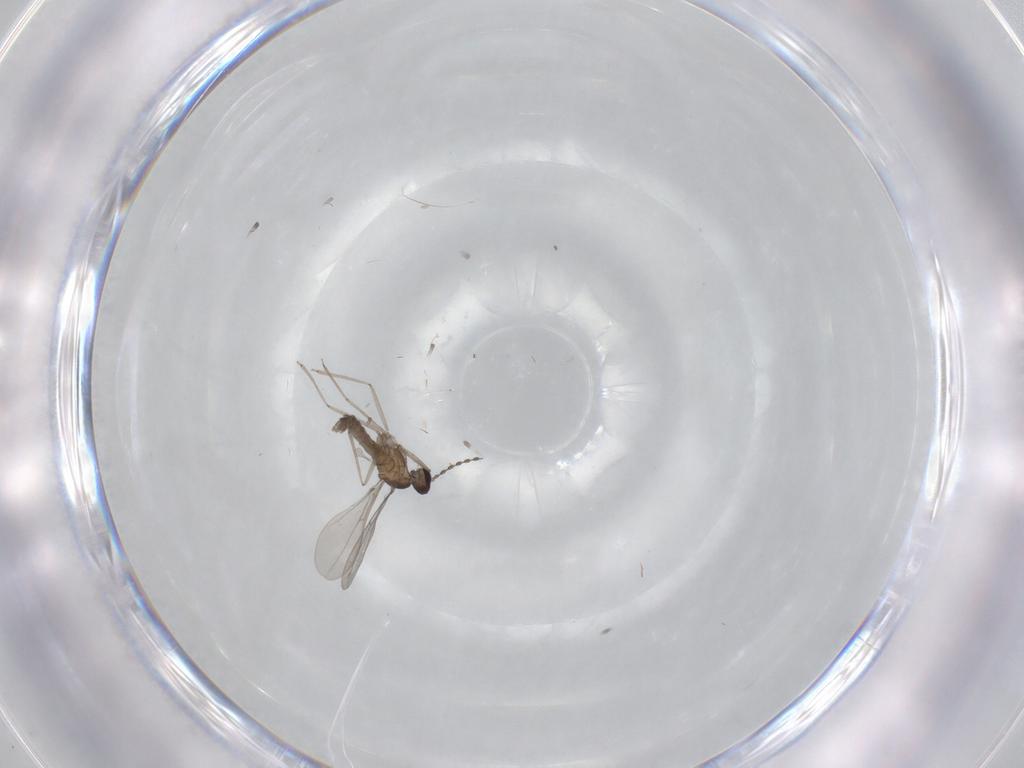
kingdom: Animalia
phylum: Arthropoda
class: Insecta
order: Diptera
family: Cecidomyiidae
